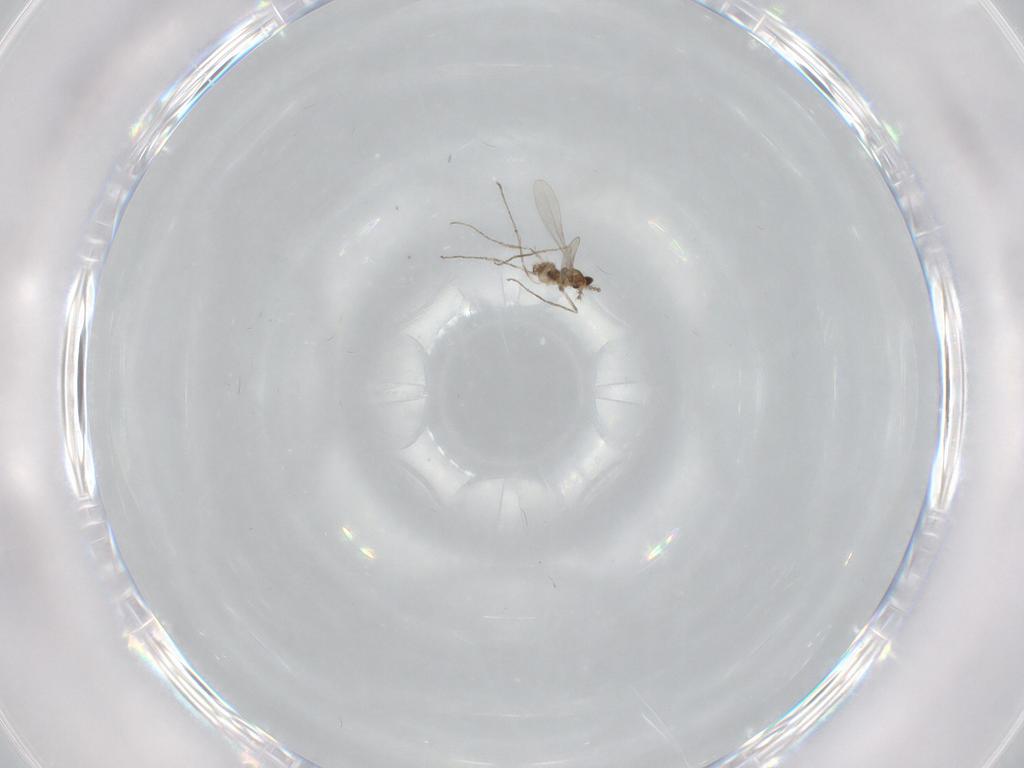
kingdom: Animalia
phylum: Arthropoda
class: Insecta
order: Diptera
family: Cecidomyiidae
